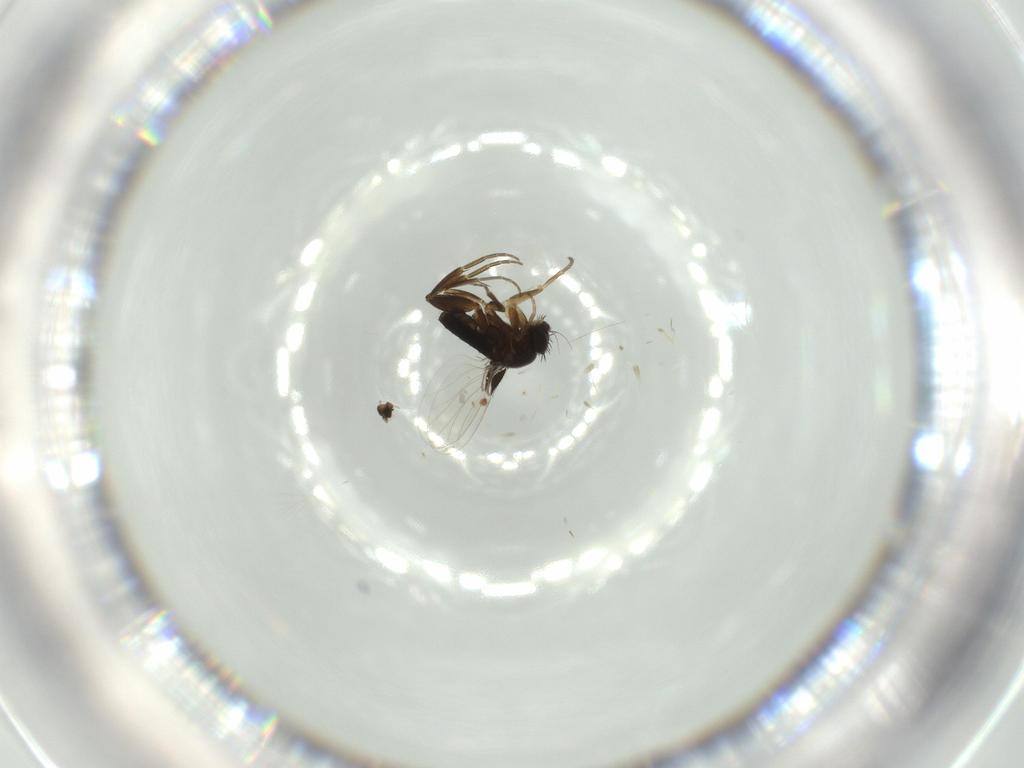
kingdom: Animalia
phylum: Arthropoda
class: Insecta
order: Diptera
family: Phoridae
